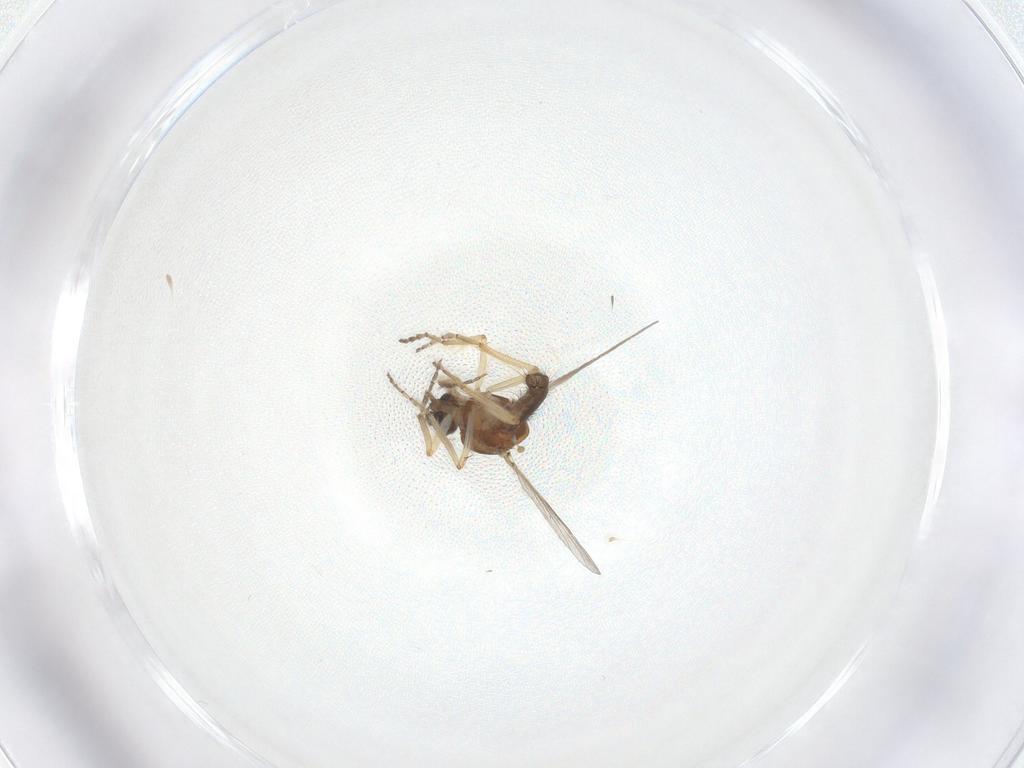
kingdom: Animalia
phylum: Arthropoda
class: Insecta
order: Diptera
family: Ceratopogonidae
